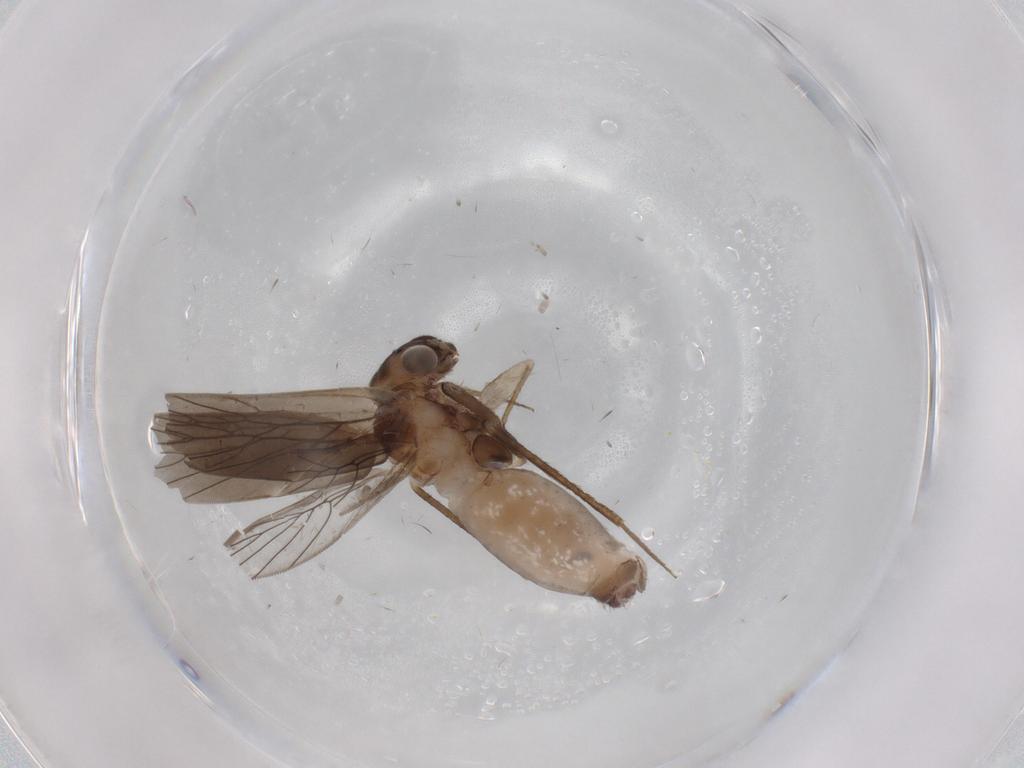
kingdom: Animalia
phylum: Arthropoda
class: Insecta
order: Psocodea
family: Lepidopsocidae
